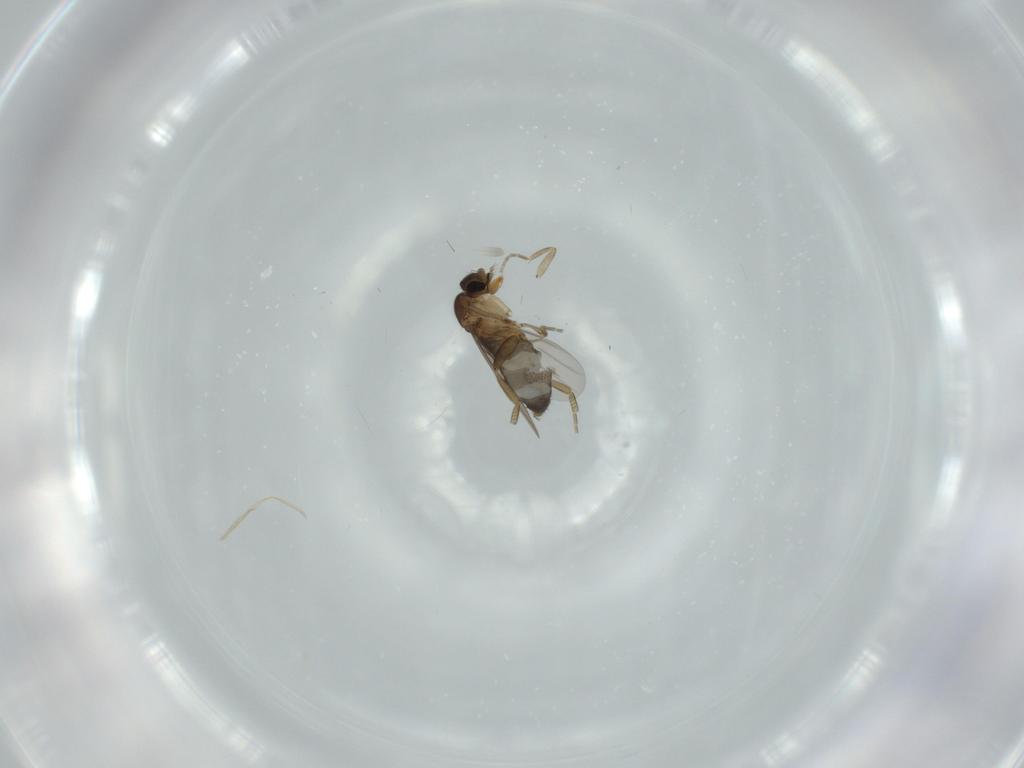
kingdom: Animalia
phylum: Arthropoda
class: Insecta
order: Diptera
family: Phoridae
